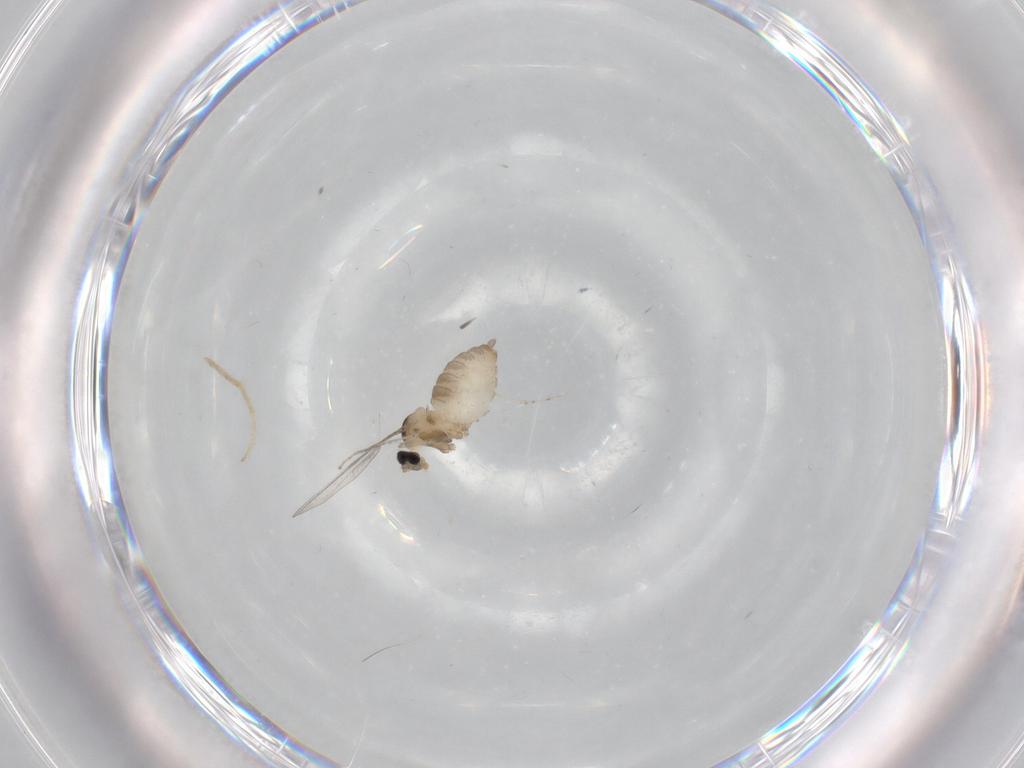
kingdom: Animalia
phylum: Arthropoda
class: Insecta
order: Diptera
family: Cecidomyiidae
